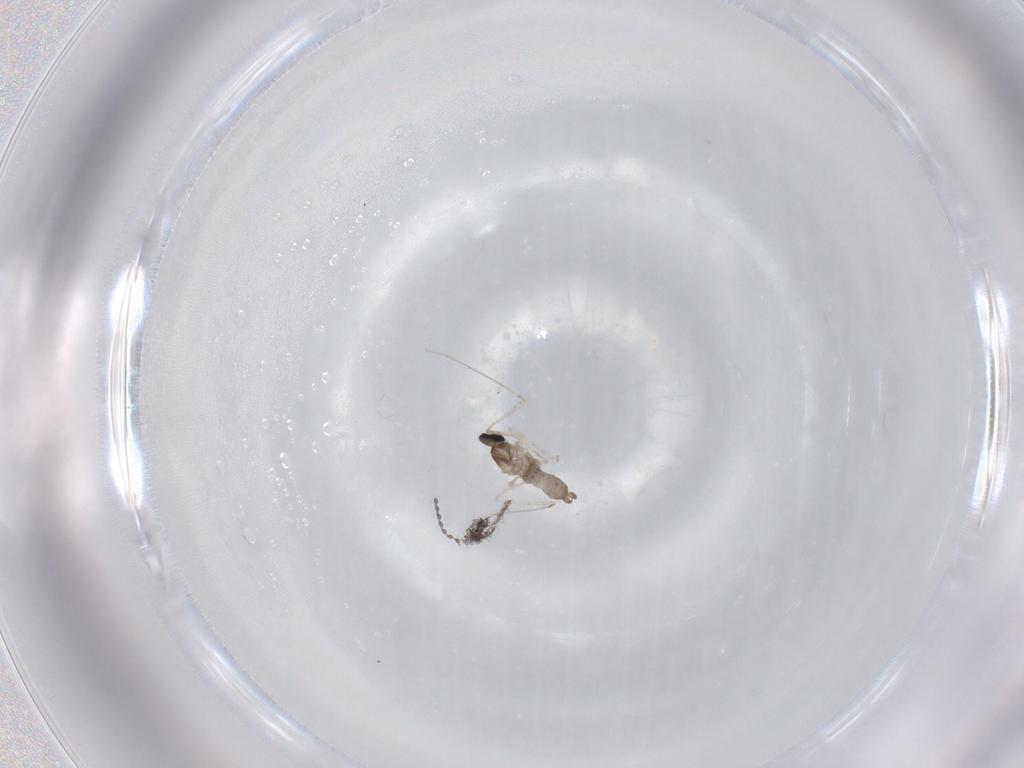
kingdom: Animalia
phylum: Arthropoda
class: Insecta
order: Diptera
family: Cecidomyiidae
